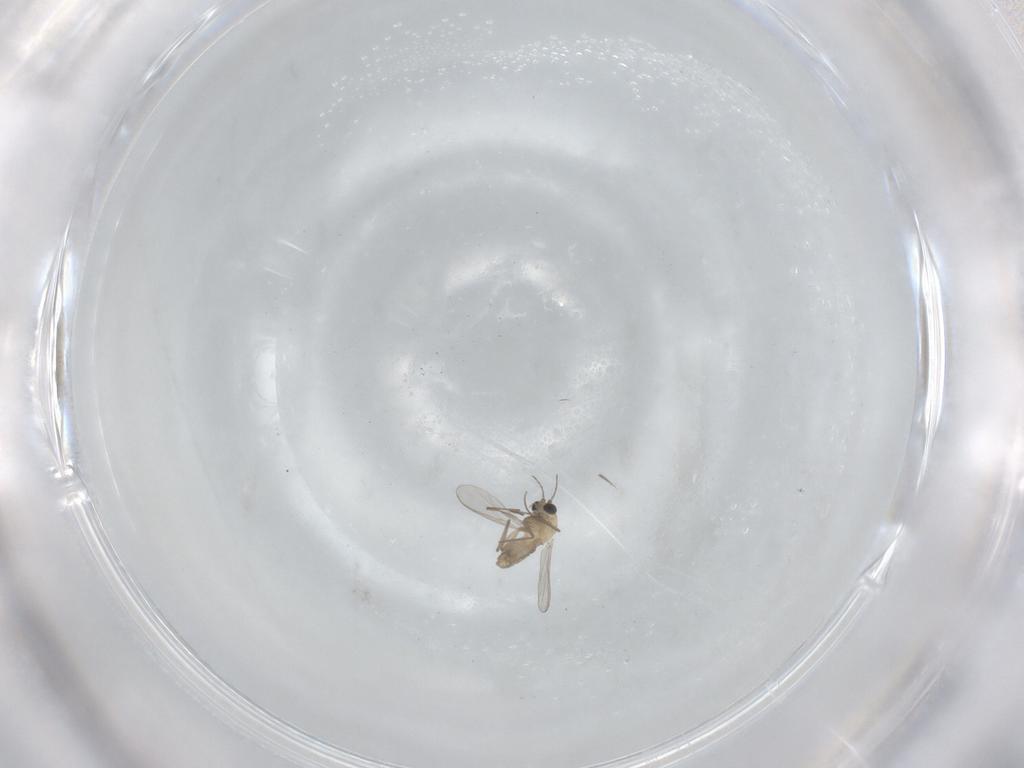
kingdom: Animalia
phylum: Arthropoda
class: Insecta
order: Diptera
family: Chironomidae
